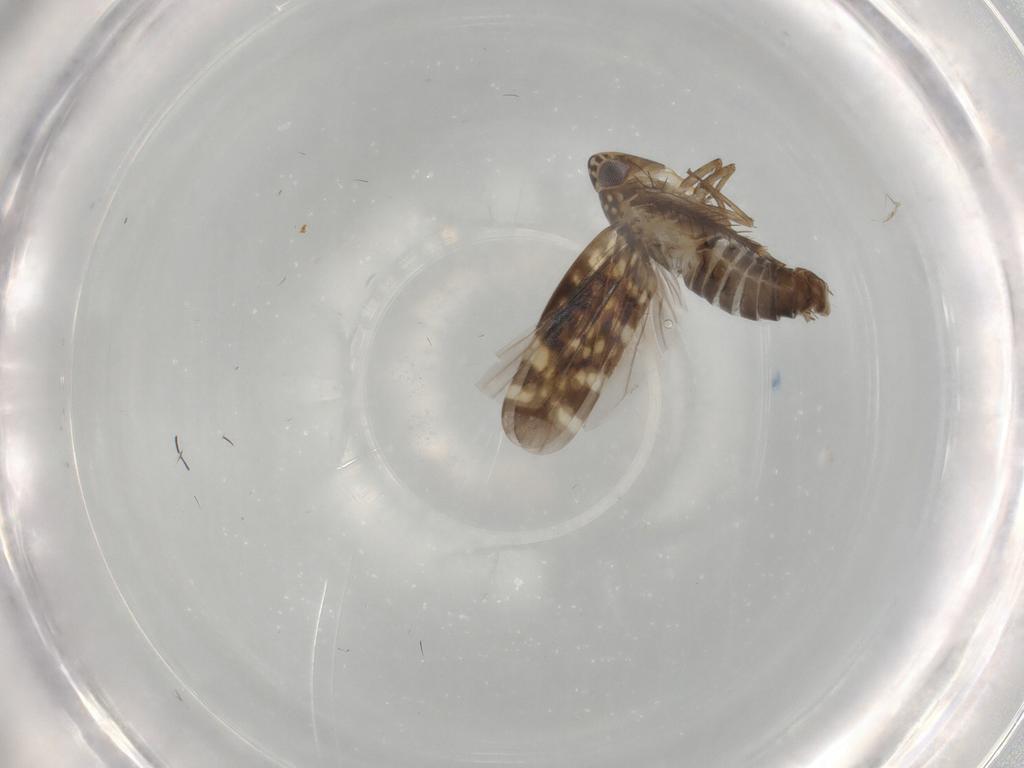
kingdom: Animalia
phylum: Arthropoda
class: Insecta
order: Hemiptera
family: Cicadellidae
